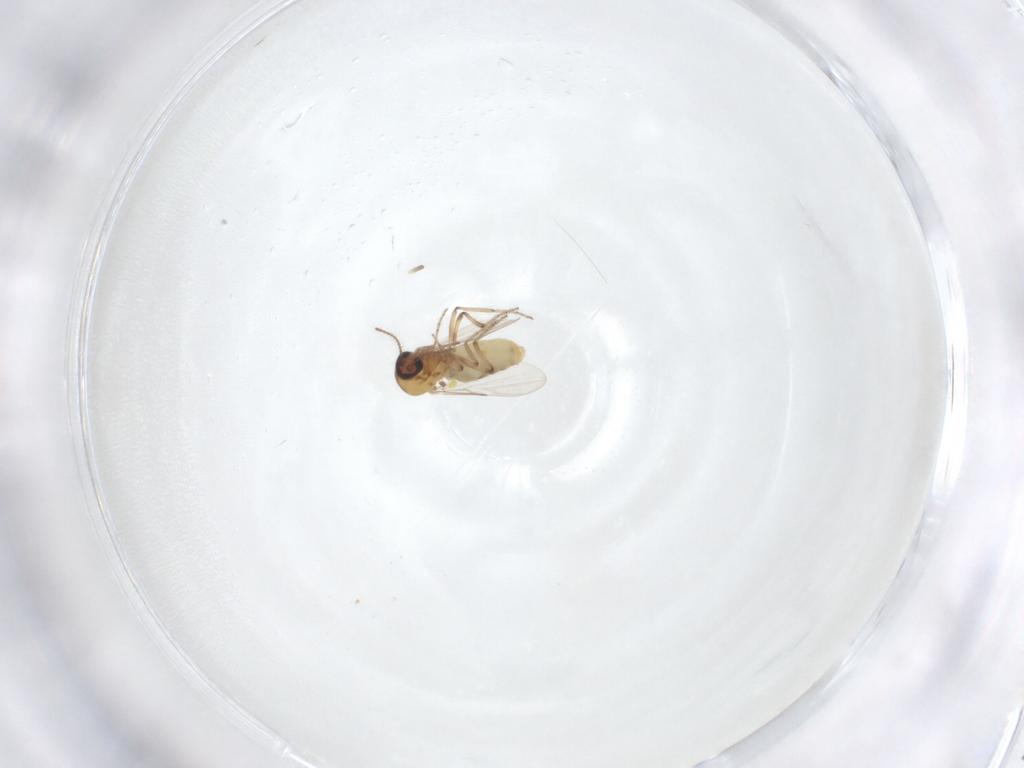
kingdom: Animalia
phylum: Arthropoda
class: Insecta
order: Diptera
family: Ceratopogonidae
